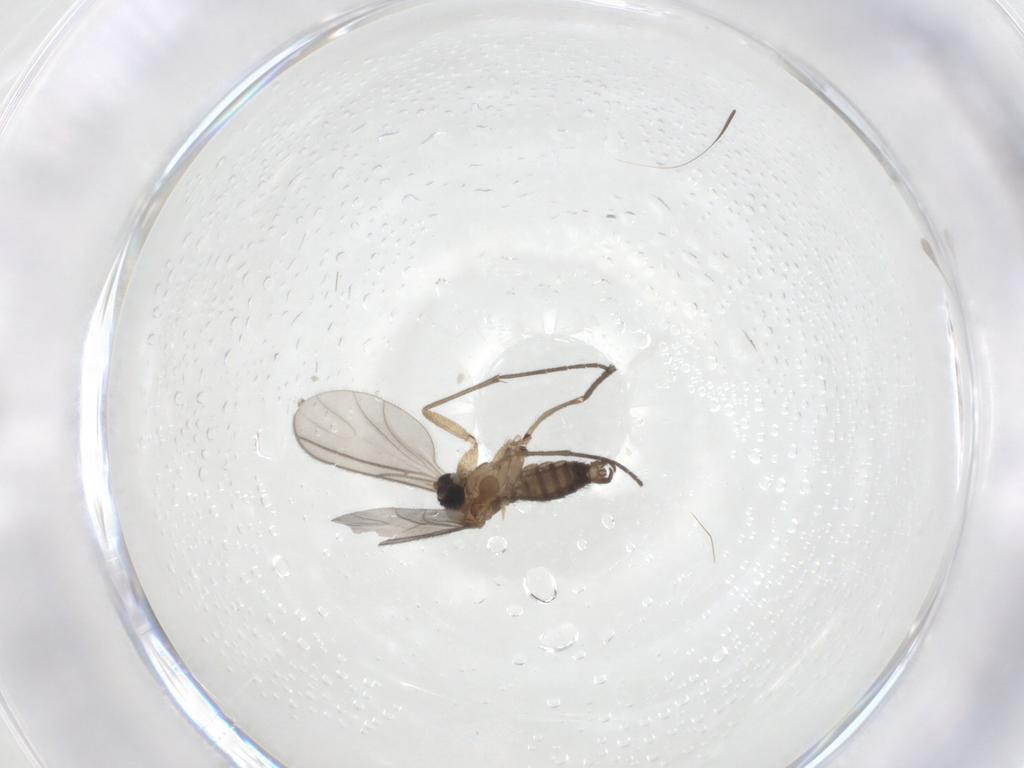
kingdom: Animalia
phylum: Arthropoda
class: Insecta
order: Diptera
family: Sciaridae
